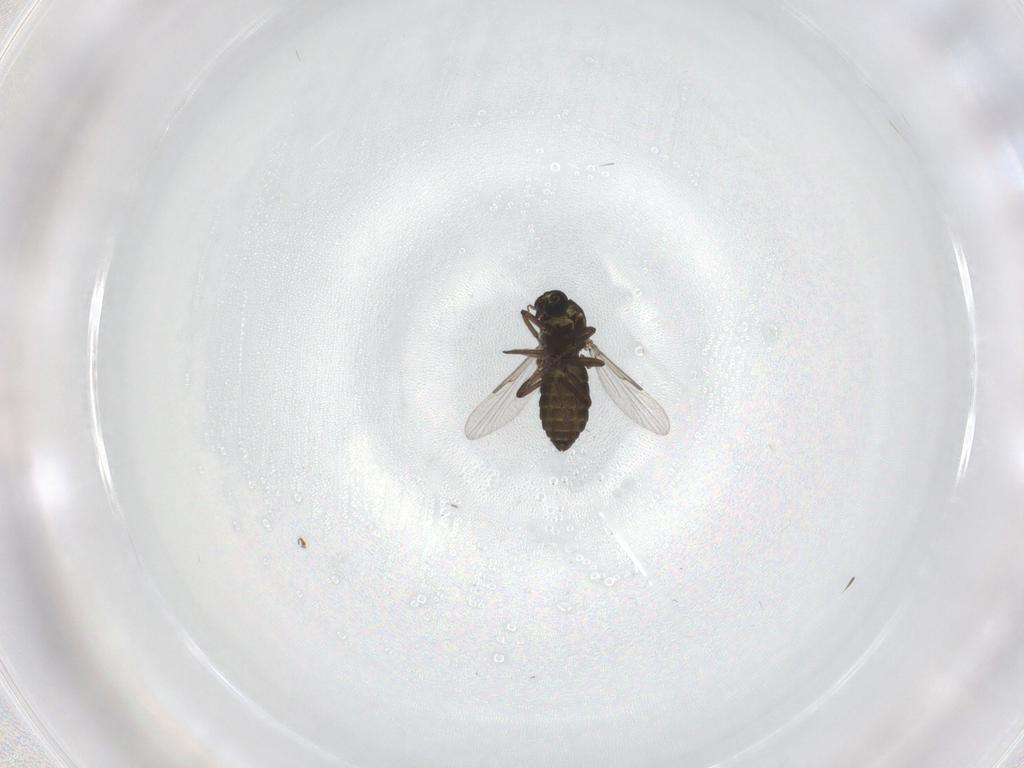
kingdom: Animalia
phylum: Arthropoda
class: Insecta
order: Diptera
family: Ceratopogonidae
